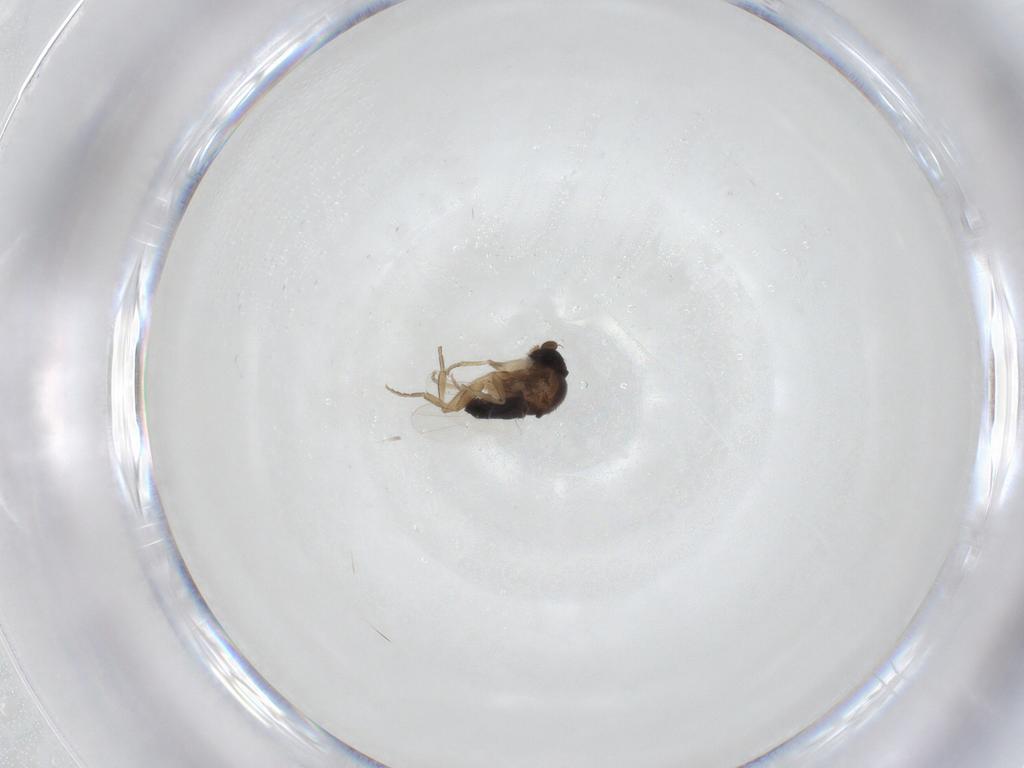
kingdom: Animalia
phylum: Arthropoda
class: Insecta
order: Diptera
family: Phoridae
